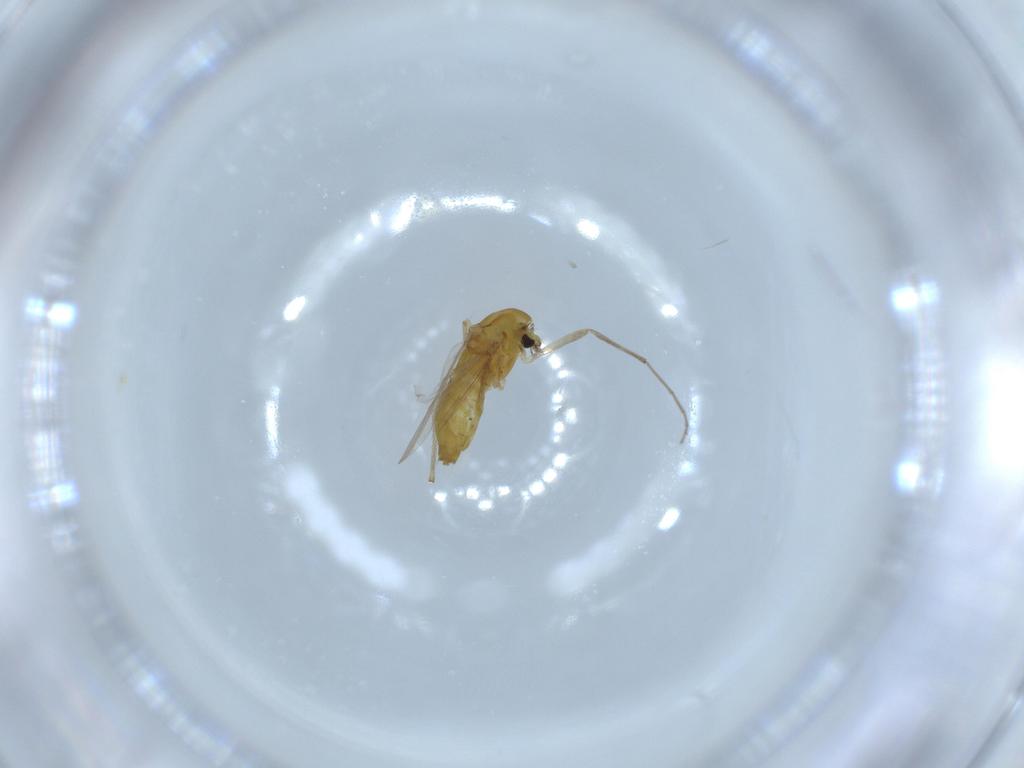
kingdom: Animalia
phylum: Arthropoda
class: Insecta
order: Diptera
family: Chironomidae
